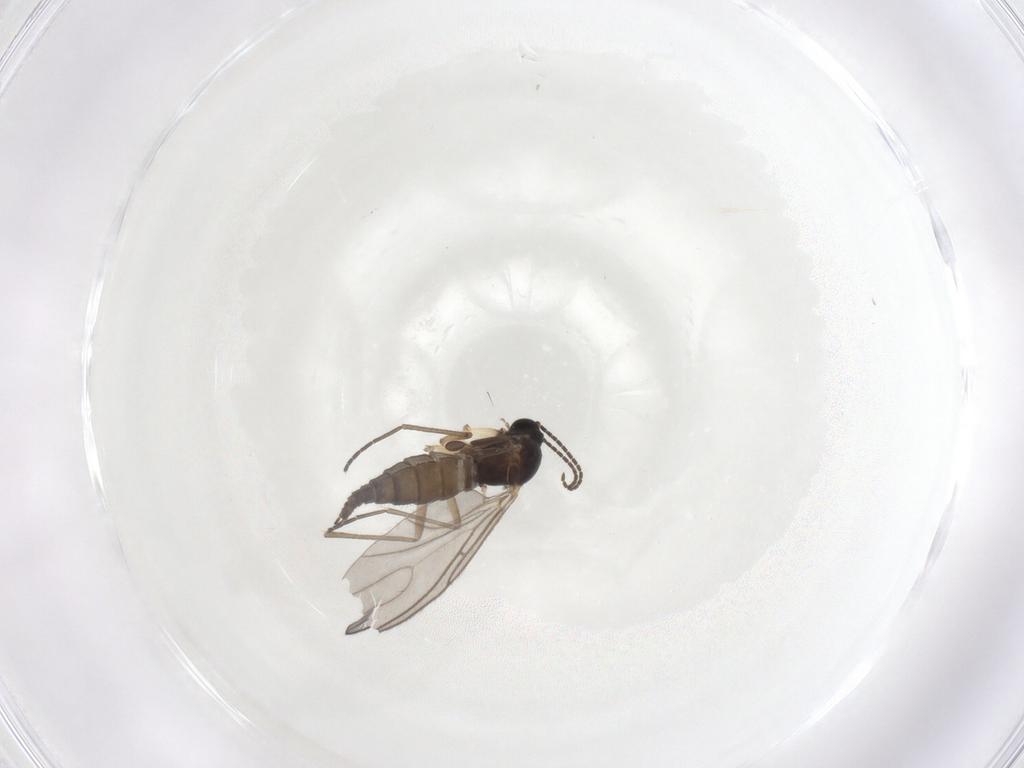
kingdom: Animalia
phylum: Arthropoda
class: Insecta
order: Diptera
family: Sciaridae
